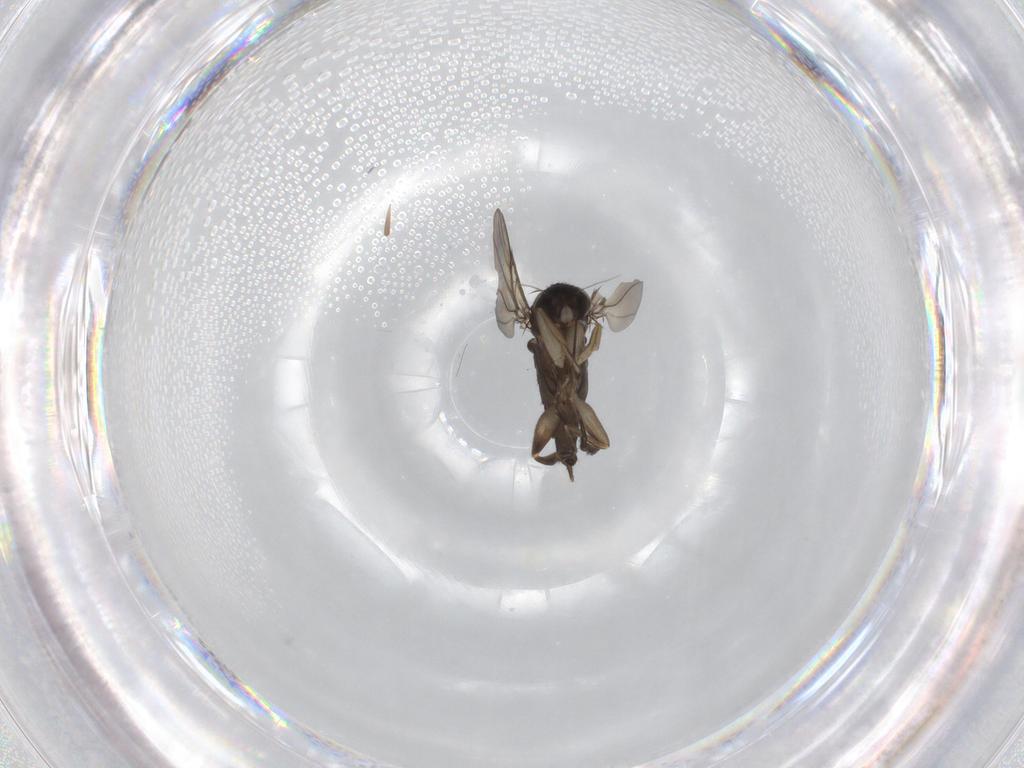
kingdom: Animalia
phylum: Arthropoda
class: Insecta
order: Diptera
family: Phoridae
